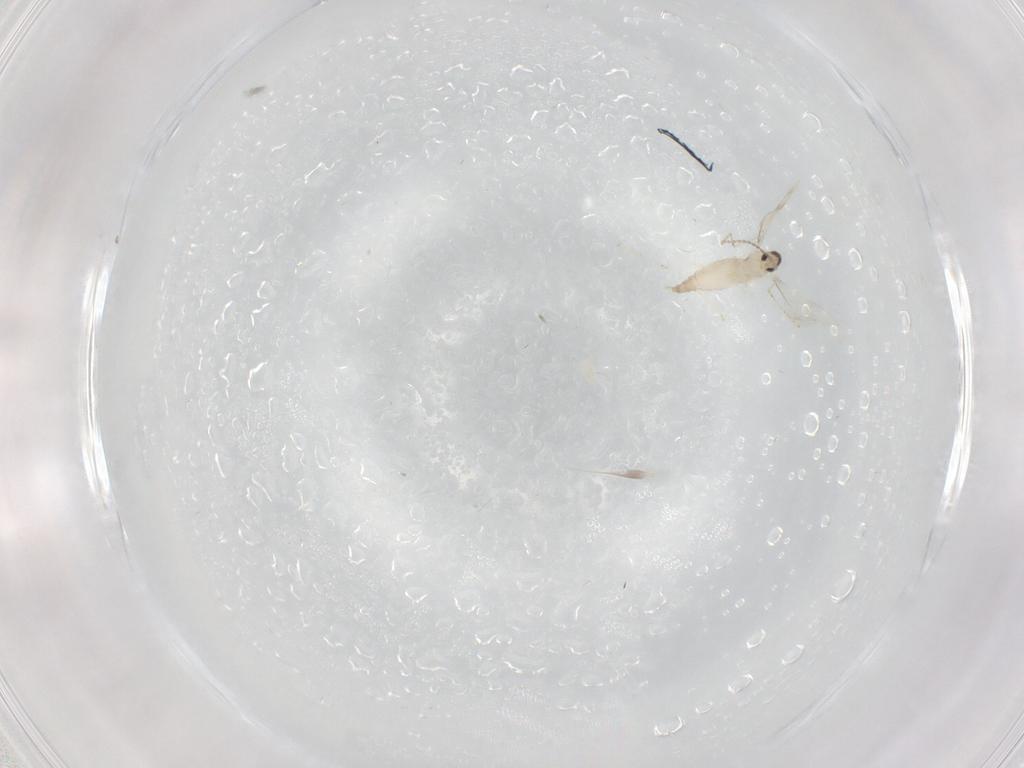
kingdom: Animalia
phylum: Arthropoda
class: Insecta
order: Diptera
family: Cecidomyiidae
